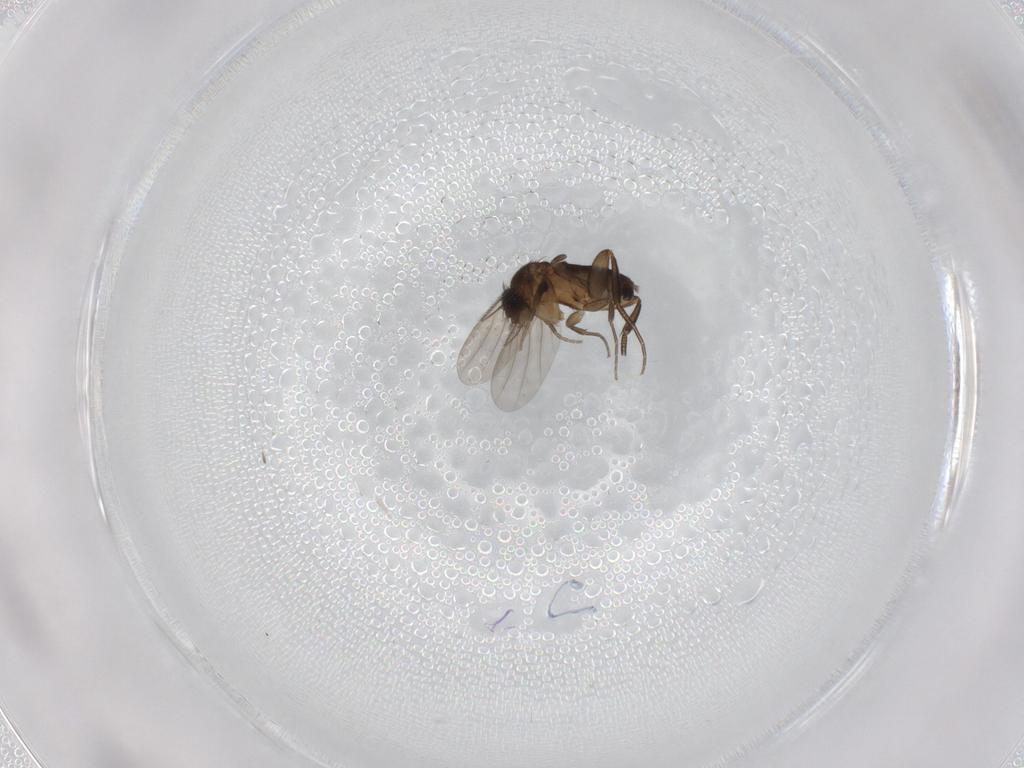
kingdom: Animalia
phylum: Arthropoda
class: Insecta
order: Diptera
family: Phoridae
